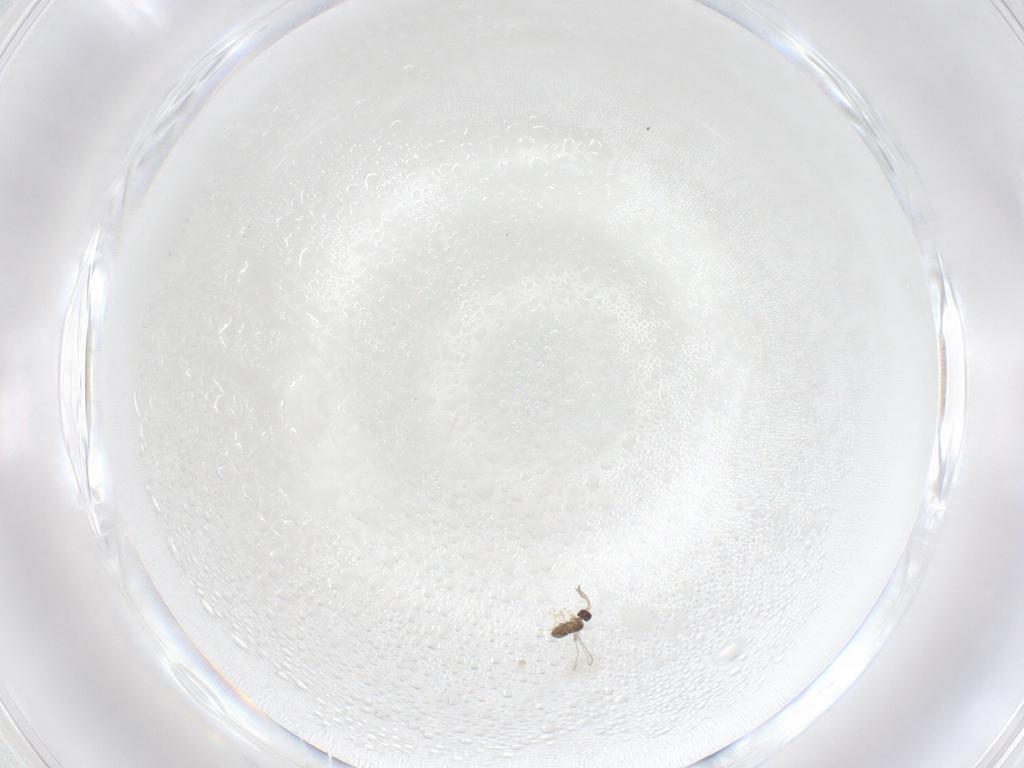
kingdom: Animalia
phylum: Arthropoda
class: Insecta
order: Hymenoptera
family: Mymaridae
